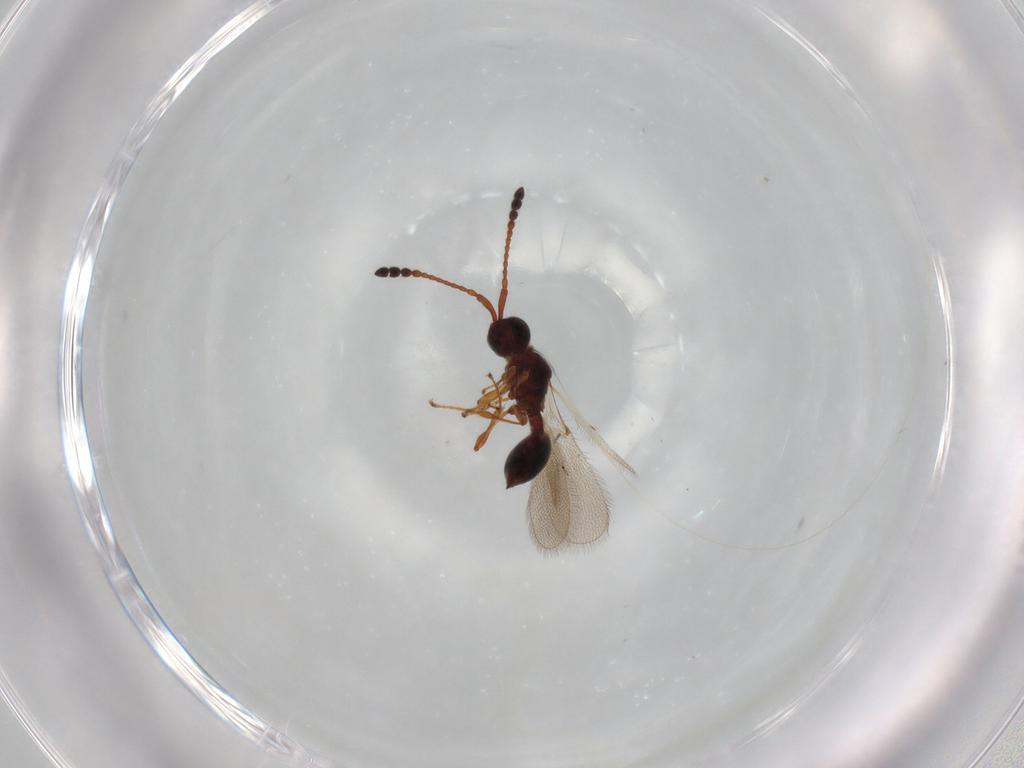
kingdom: Animalia
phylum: Arthropoda
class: Insecta
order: Hymenoptera
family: Diapriidae
